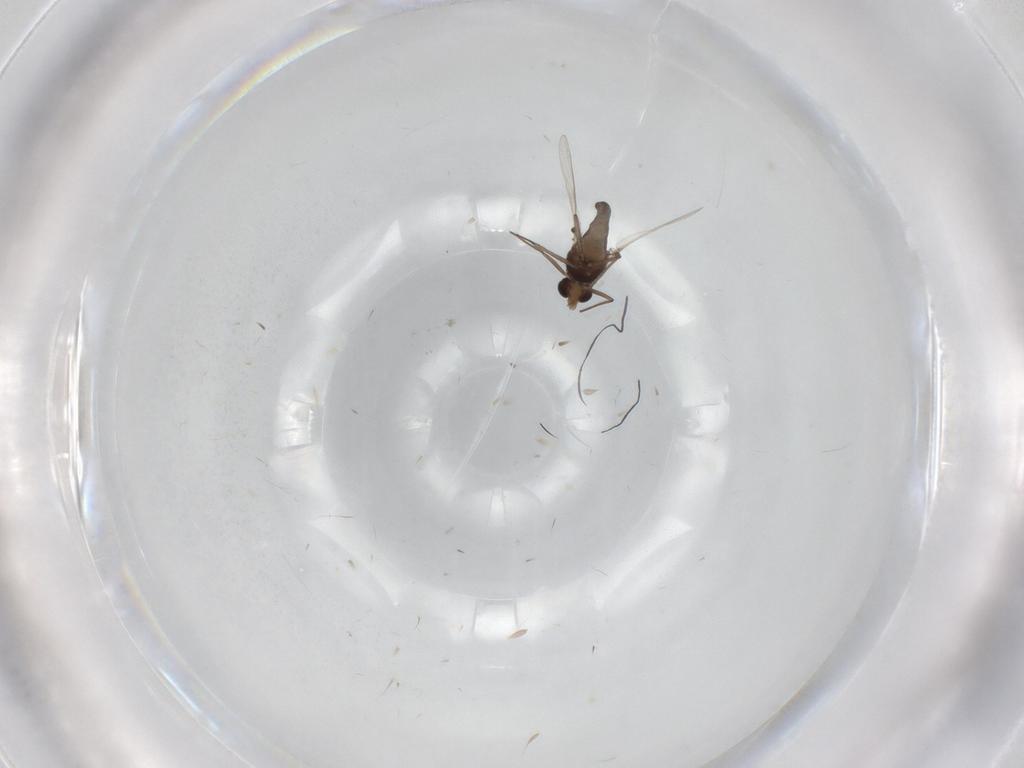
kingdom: Animalia
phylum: Arthropoda
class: Insecta
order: Diptera
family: Chironomidae
